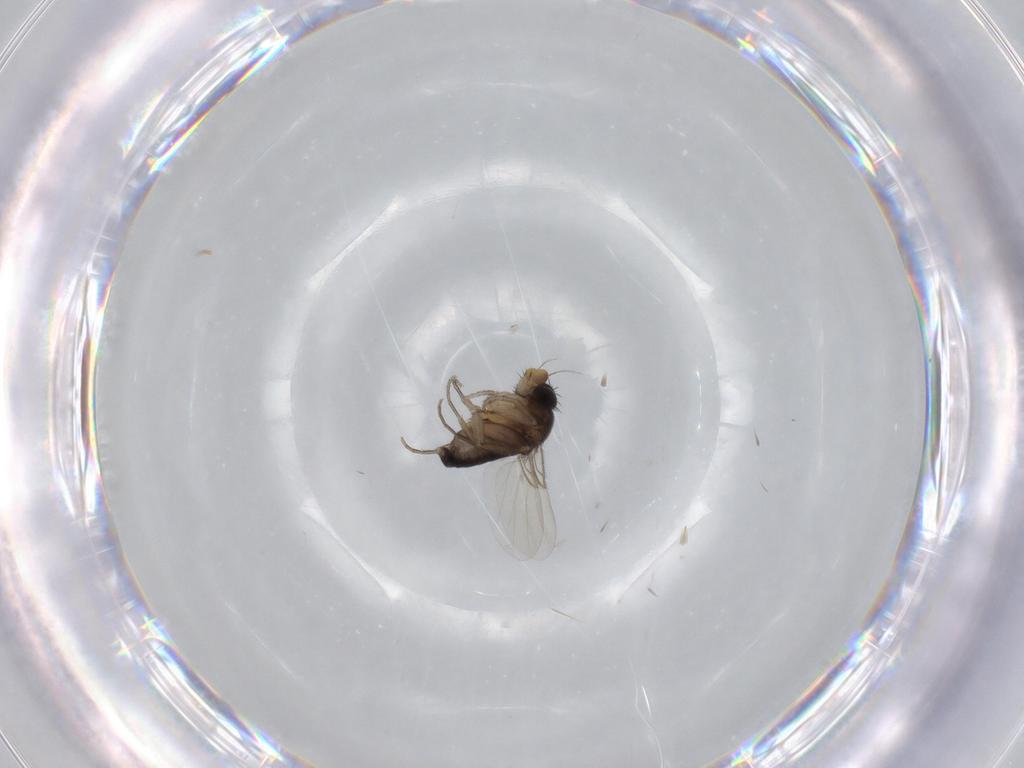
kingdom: Animalia
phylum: Arthropoda
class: Insecta
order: Diptera
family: Phoridae
